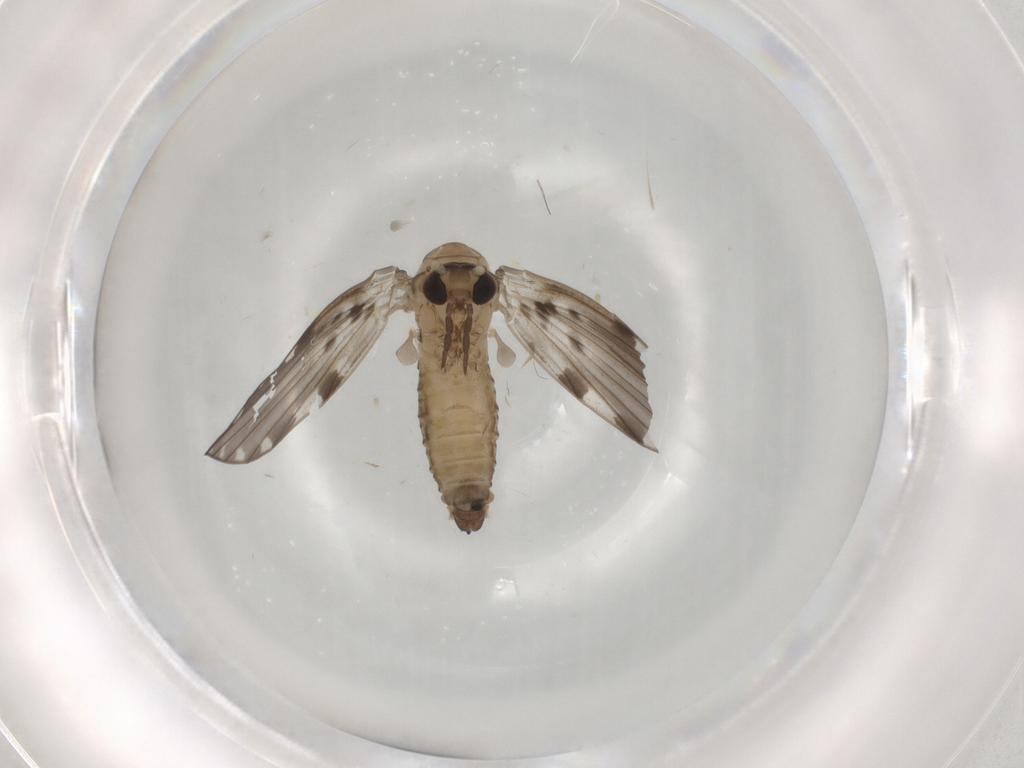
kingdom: Animalia
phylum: Arthropoda
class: Insecta
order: Diptera
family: Psychodidae
